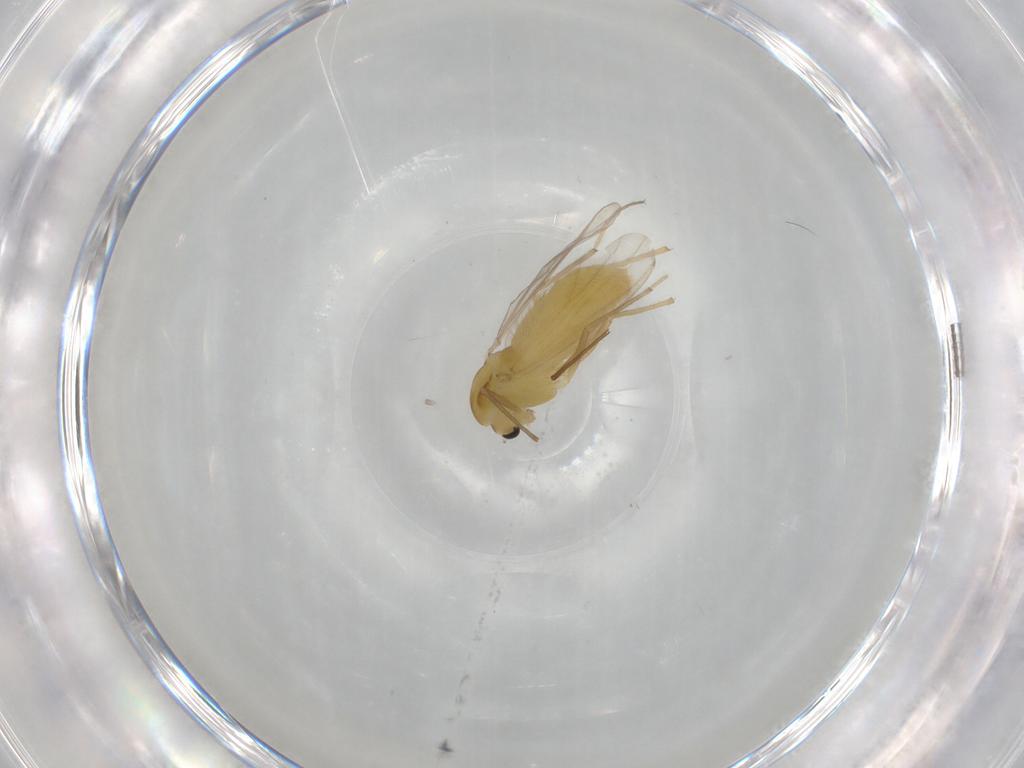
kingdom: Animalia
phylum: Arthropoda
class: Insecta
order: Diptera
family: Chironomidae
